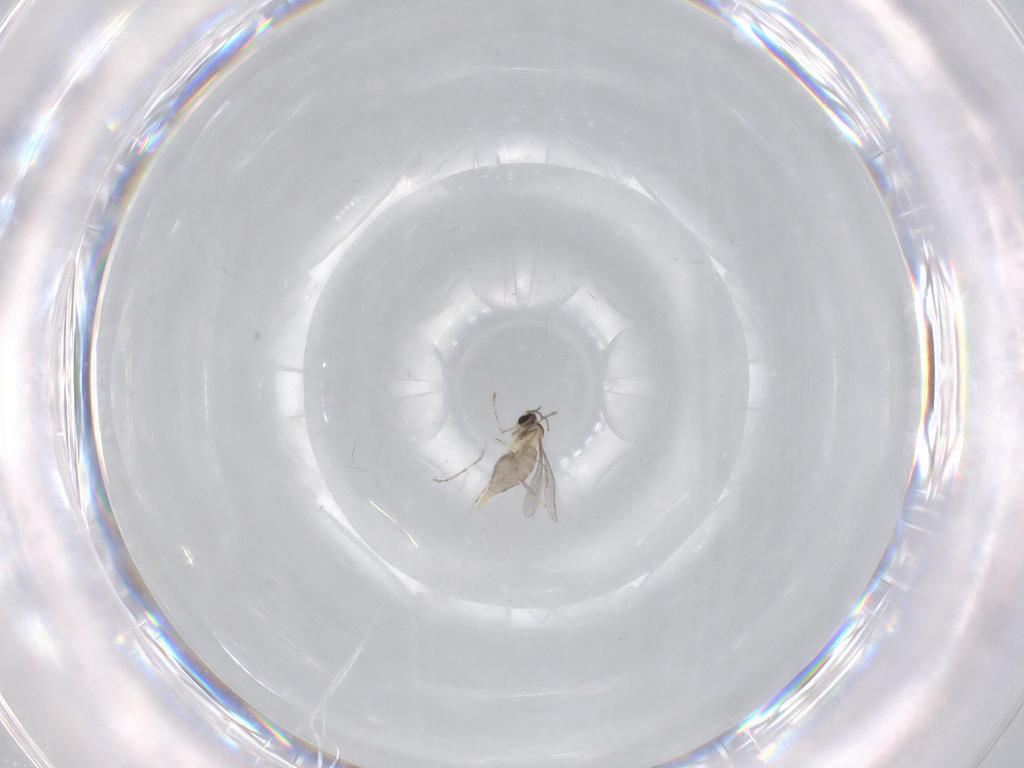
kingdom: Animalia
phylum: Arthropoda
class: Insecta
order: Diptera
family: Cecidomyiidae
